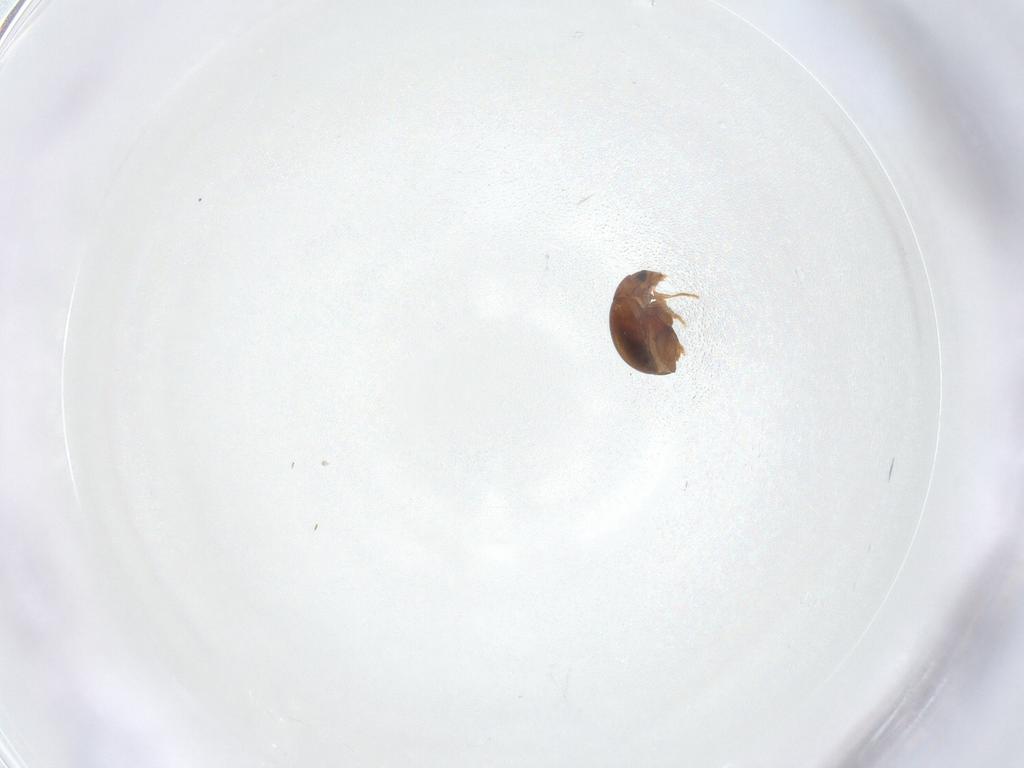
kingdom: Animalia
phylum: Arthropoda
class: Insecta
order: Coleoptera
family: Chrysomelidae
